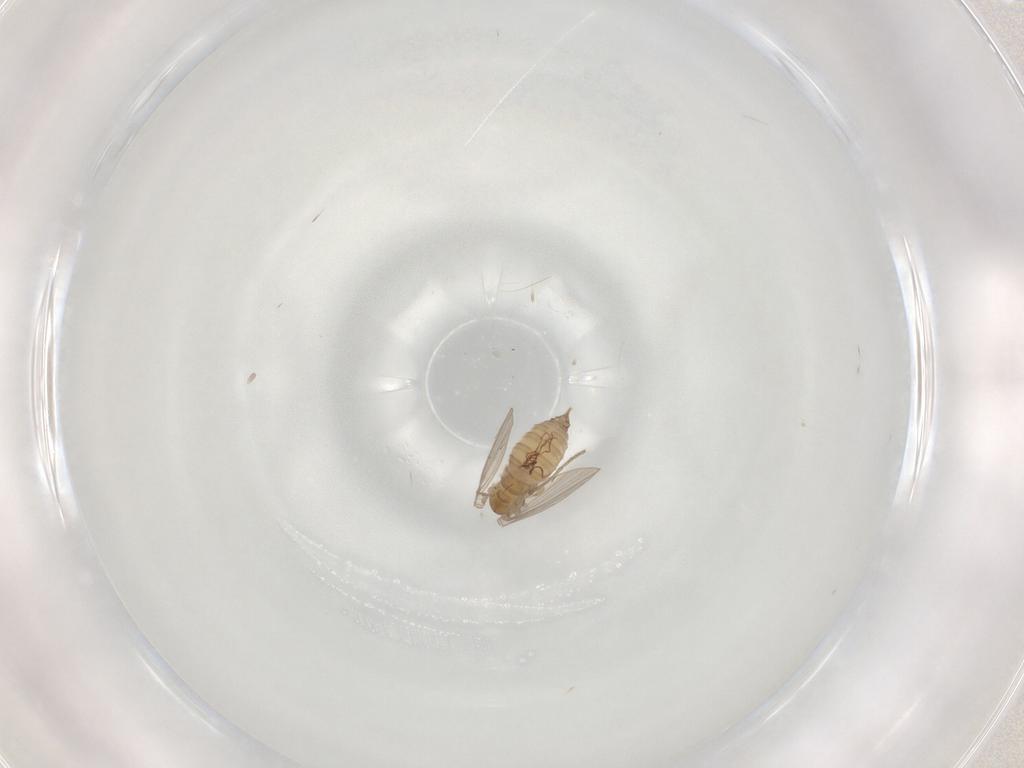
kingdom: Animalia
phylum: Arthropoda
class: Insecta
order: Diptera
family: Psychodidae
